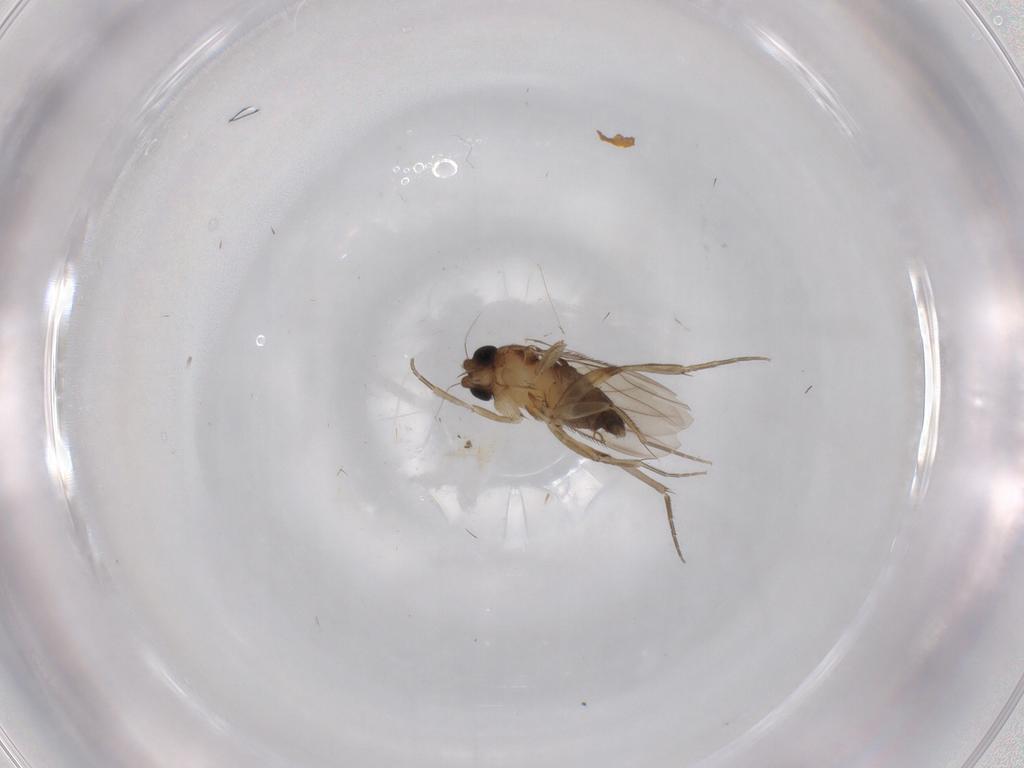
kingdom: Animalia
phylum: Arthropoda
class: Insecta
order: Diptera
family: Phoridae
